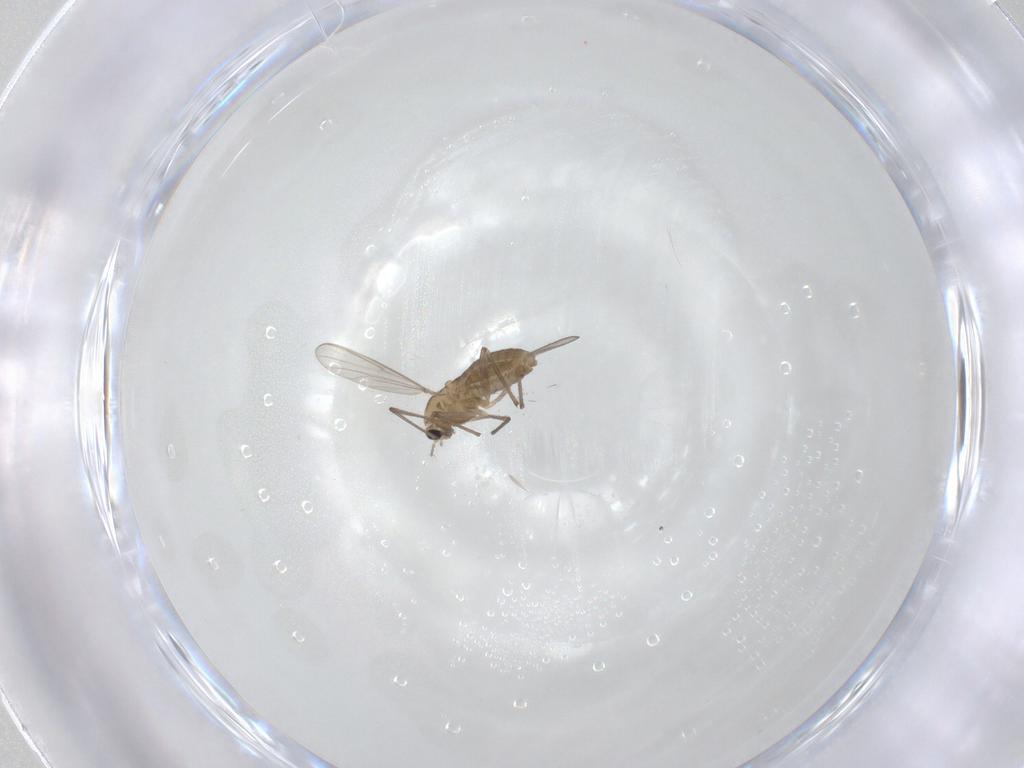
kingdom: Animalia
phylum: Arthropoda
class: Insecta
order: Diptera
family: Chironomidae
